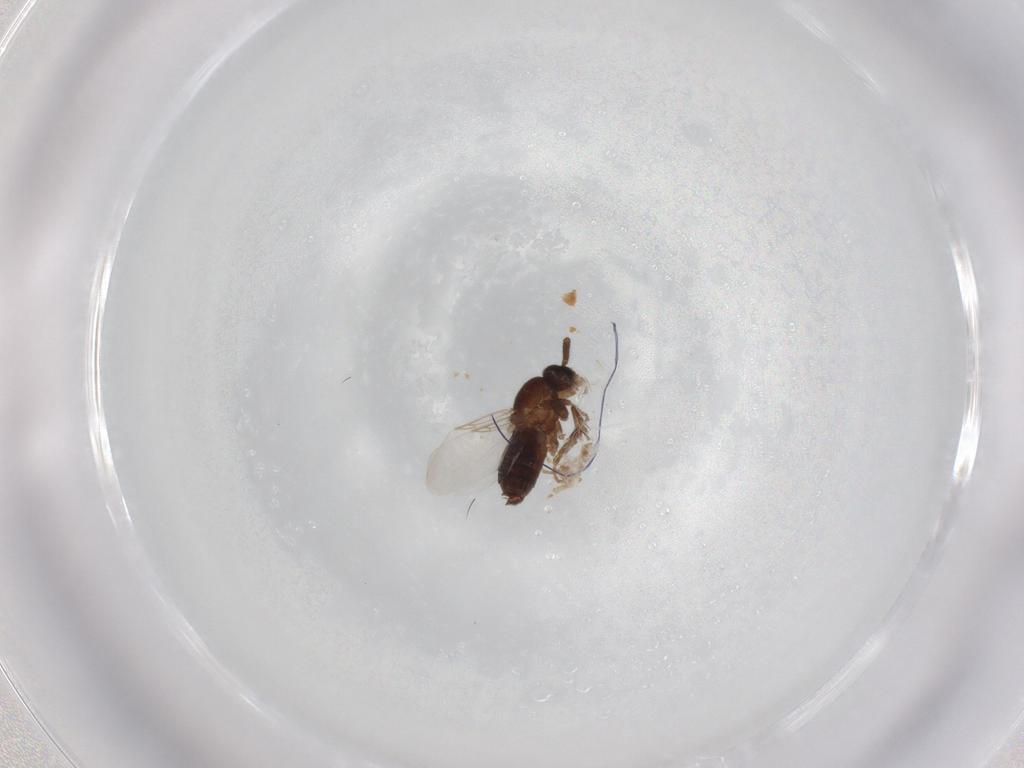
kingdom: Animalia
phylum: Arthropoda
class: Insecta
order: Diptera
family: Calliphoridae
